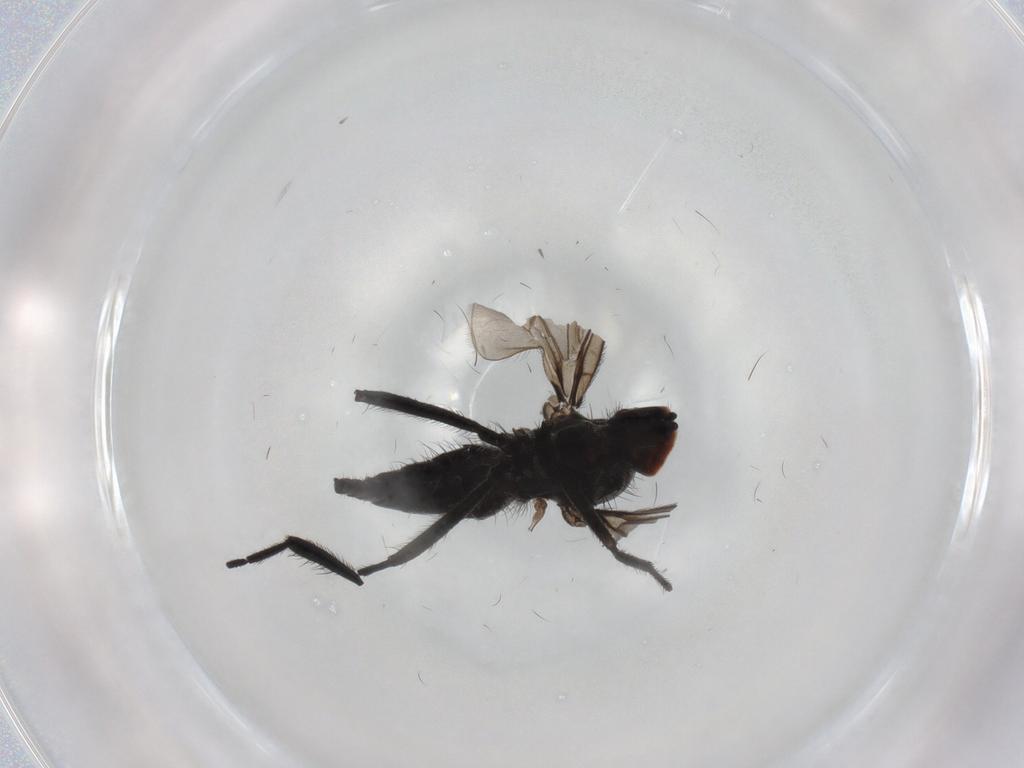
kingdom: Animalia
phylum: Arthropoda
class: Insecta
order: Diptera
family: Hybotidae
